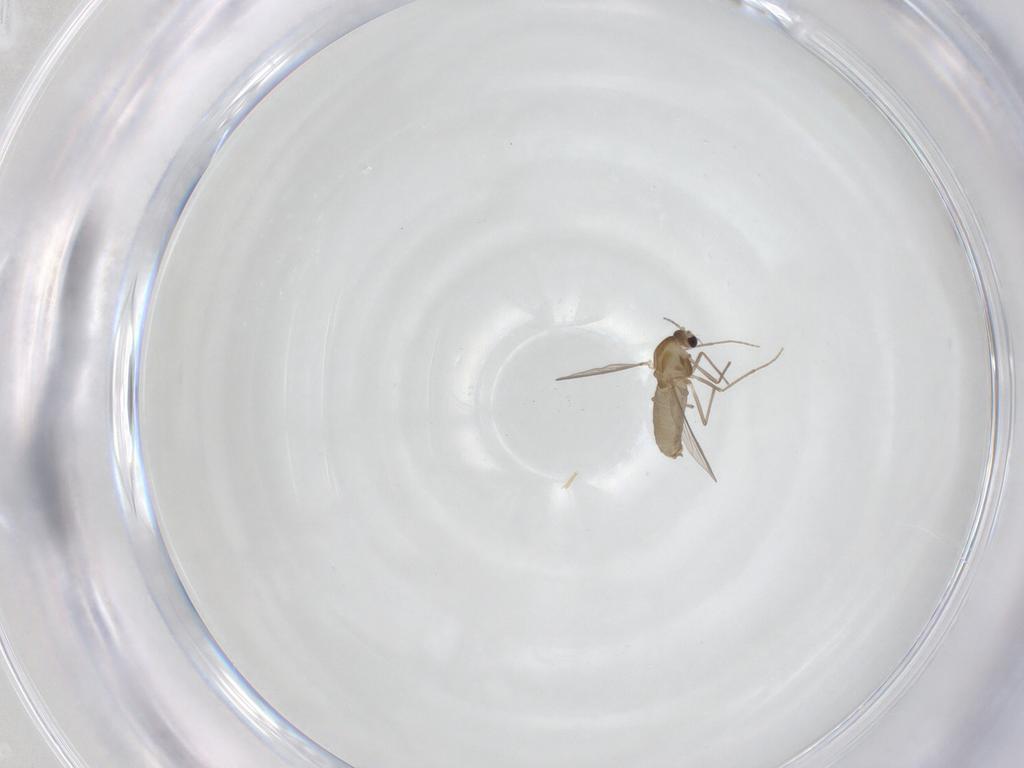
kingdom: Animalia
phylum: Arthropoda
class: Insecta
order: Diptera
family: Chironomidae
